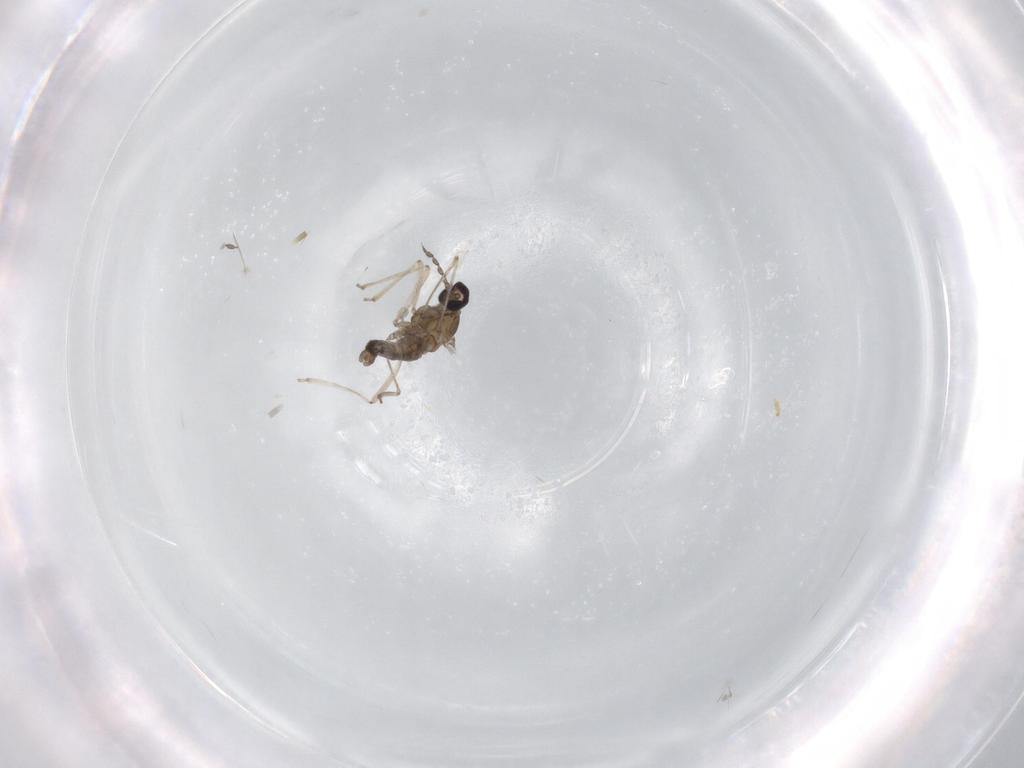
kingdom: Animalia
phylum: Arthropoda
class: Insecta
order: Diptera
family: Cecidomyiidae
